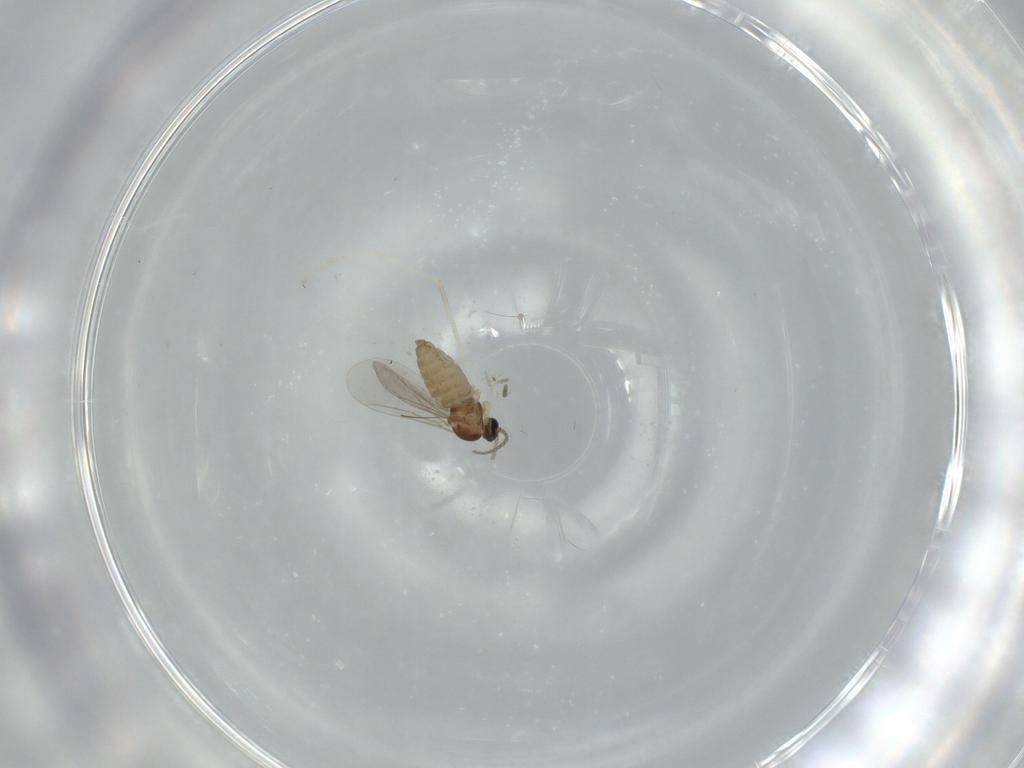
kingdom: Animalia
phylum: Arthropoda
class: Insecta
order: Diptera
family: Cecidomyiidae
